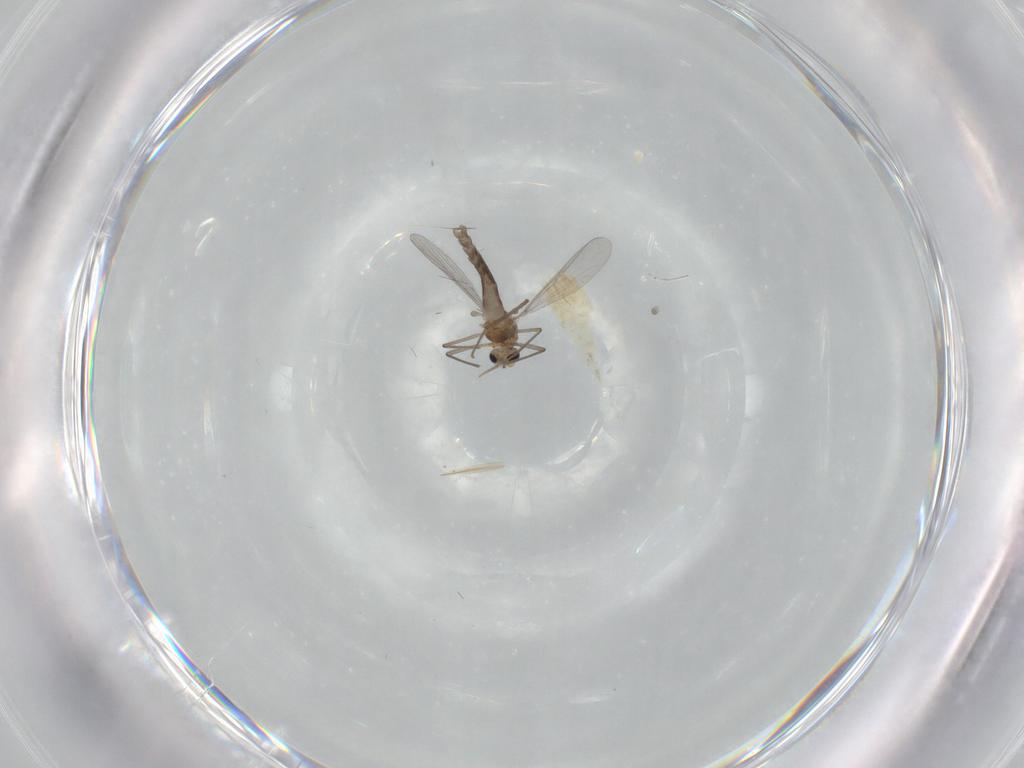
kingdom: Animalia
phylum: Arthropoda
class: Insecta
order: Diptera
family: Chironomidae
